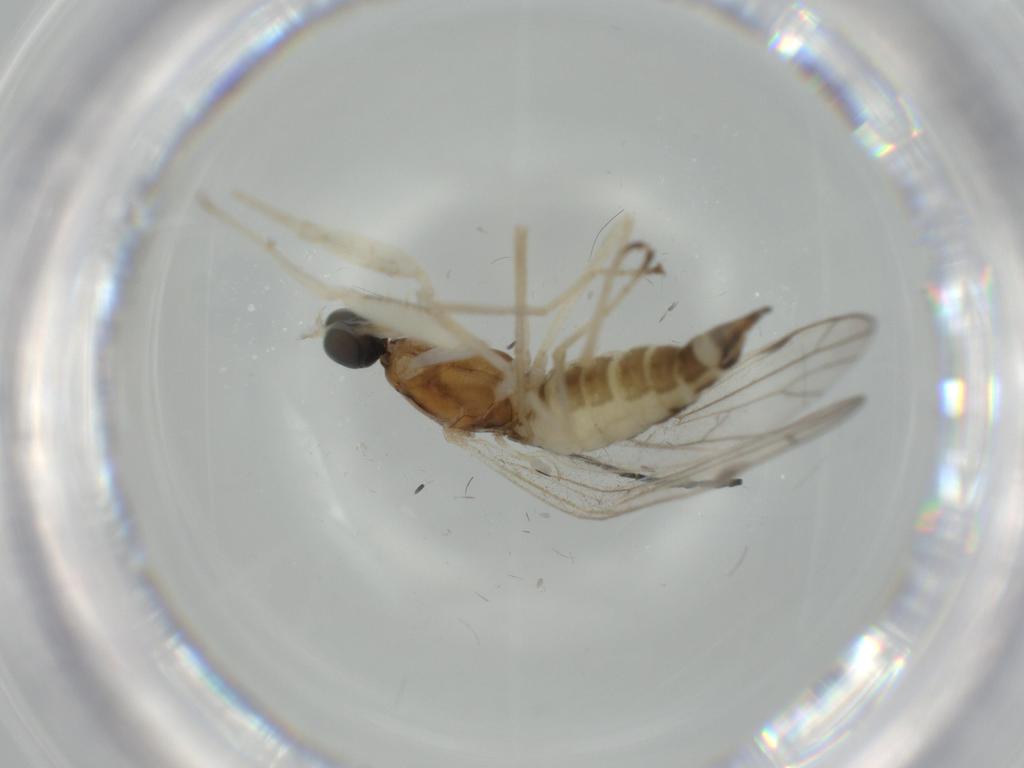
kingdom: Animalia
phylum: Arthropoda
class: Insecta
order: Diptera
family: Empididae
